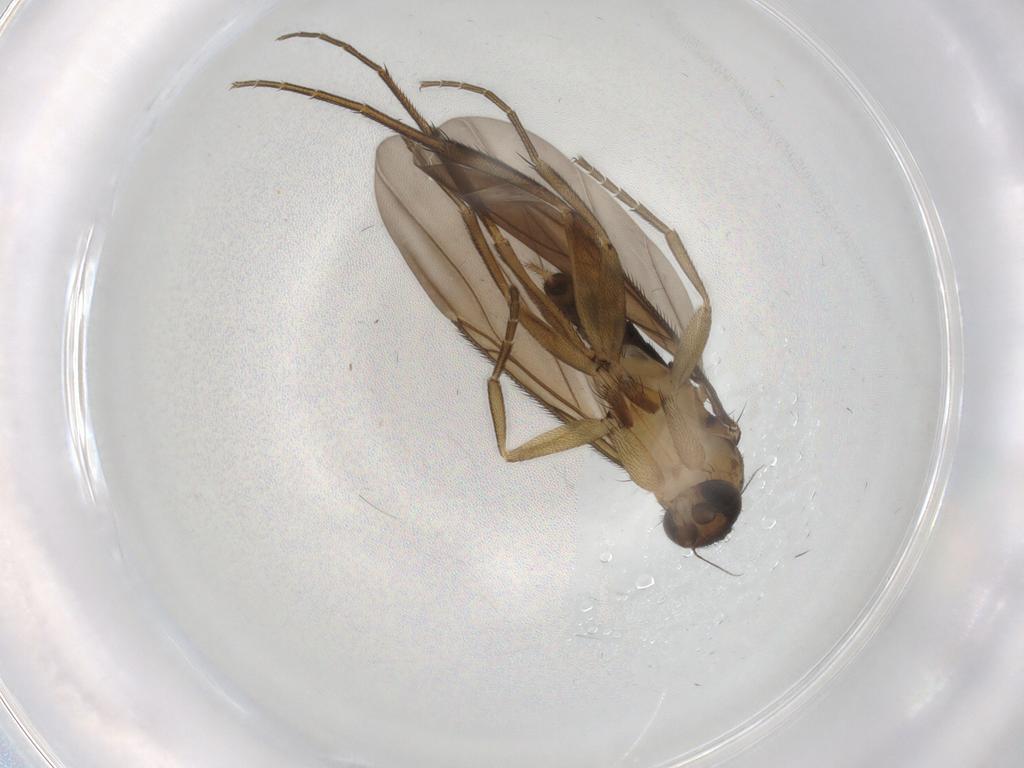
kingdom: Animalia
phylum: Arthropoda
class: Insecta
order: Diptera
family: Phoridae
